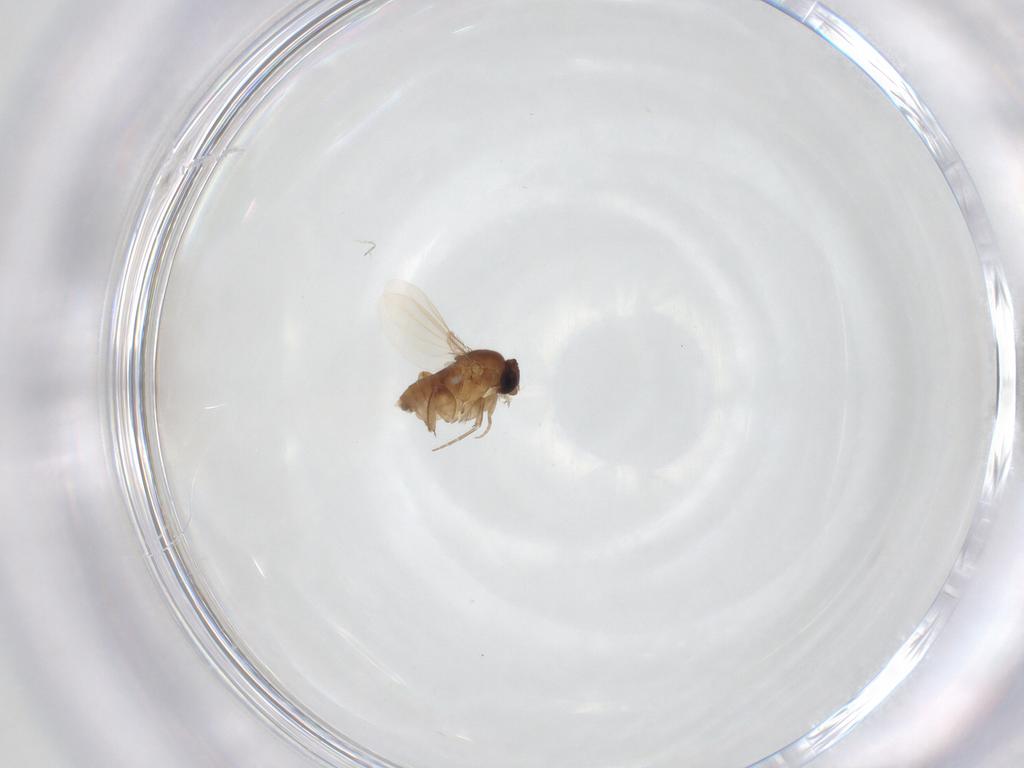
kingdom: Animalia
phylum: Arthropoda
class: Insecta
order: Diptera
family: Phoridae
